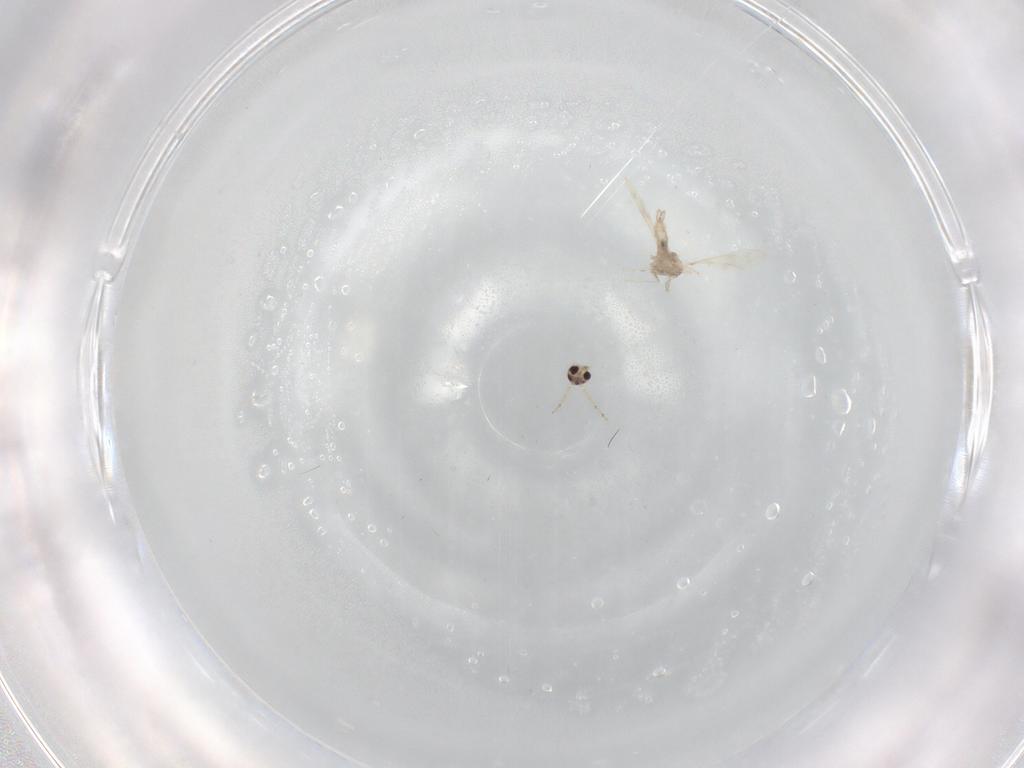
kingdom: Animalia
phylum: Arthropoda
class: Insecta
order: Diptera
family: Cecidomyiidae
